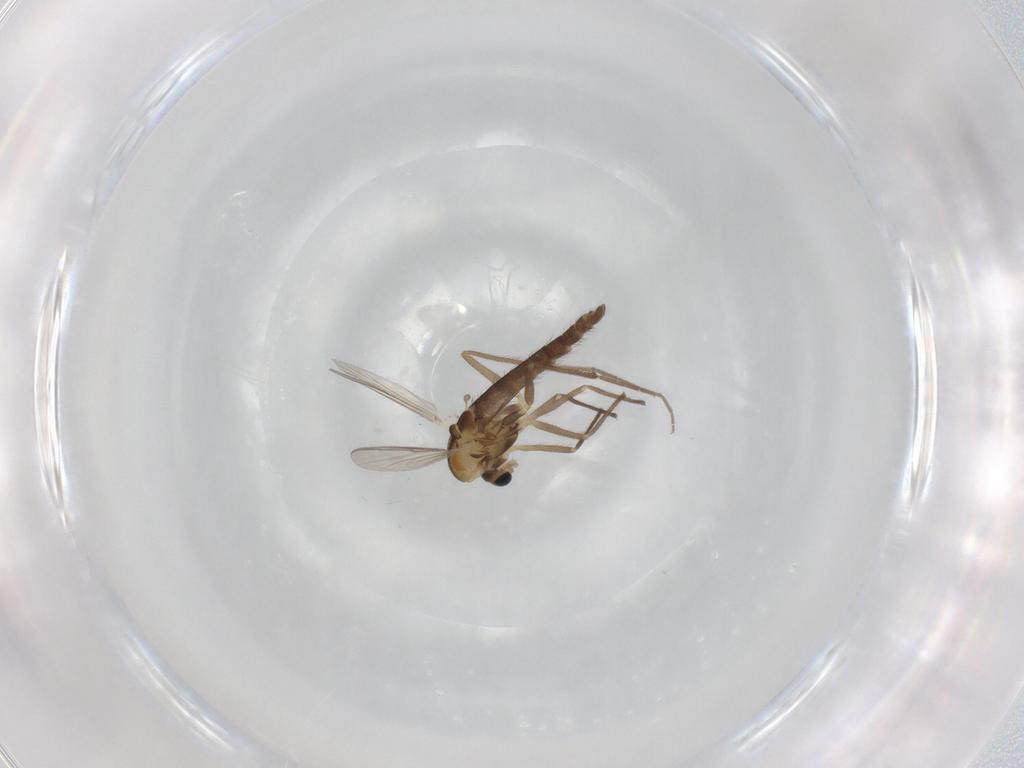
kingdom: Animalia
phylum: Arthropoda
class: Insecta
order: Diptera
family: Chironomidae
